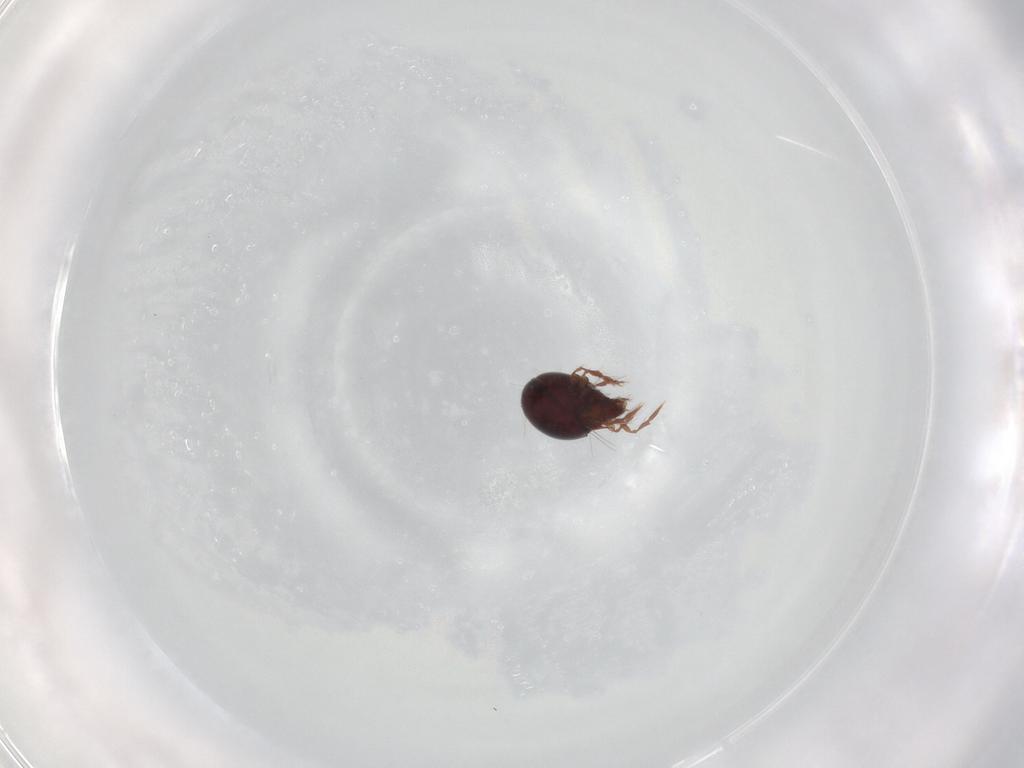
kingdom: Animalia
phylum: Arthropoda
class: Arachnida
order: Sarcoptiformes
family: Ceratoppiidae
